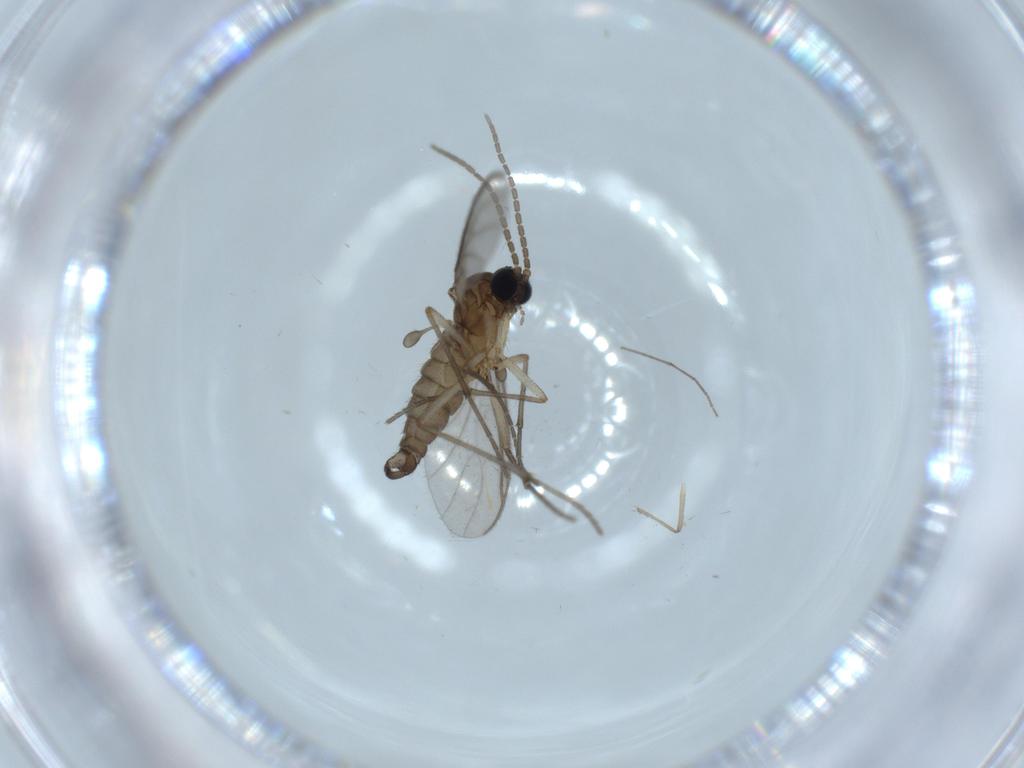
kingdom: Animalia
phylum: Arthropoda
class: Insecta
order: Diptera
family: Sciaridae
